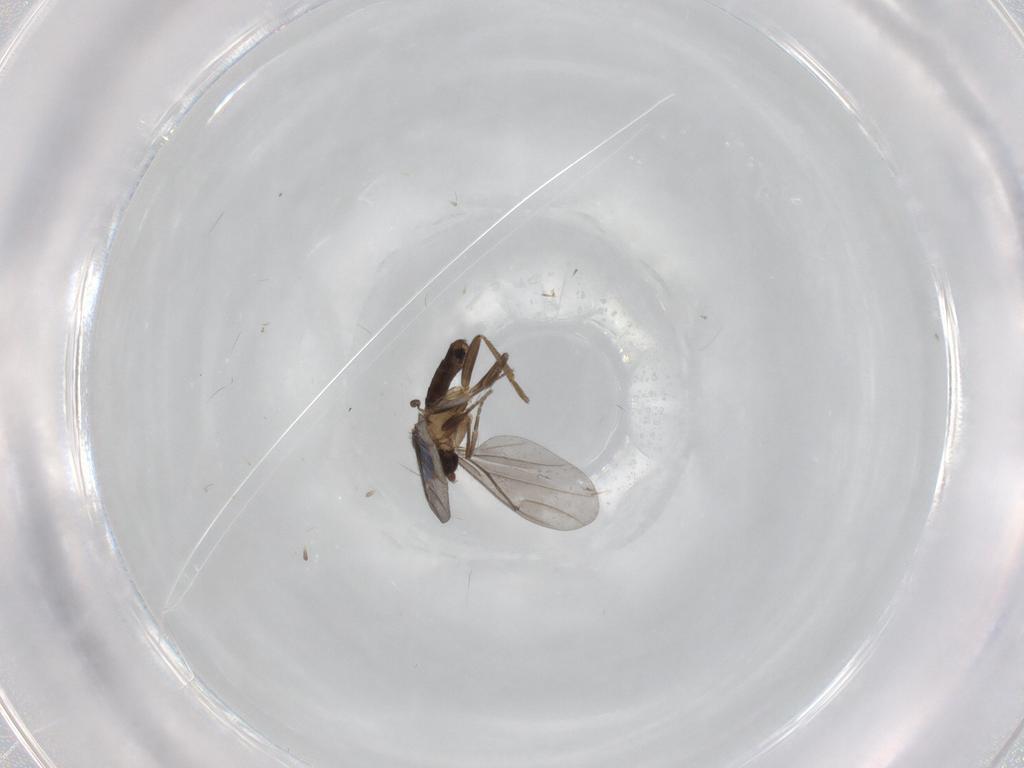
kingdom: Animalia
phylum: Arthropoda
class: Insecta
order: Diptera
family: Phoridae
